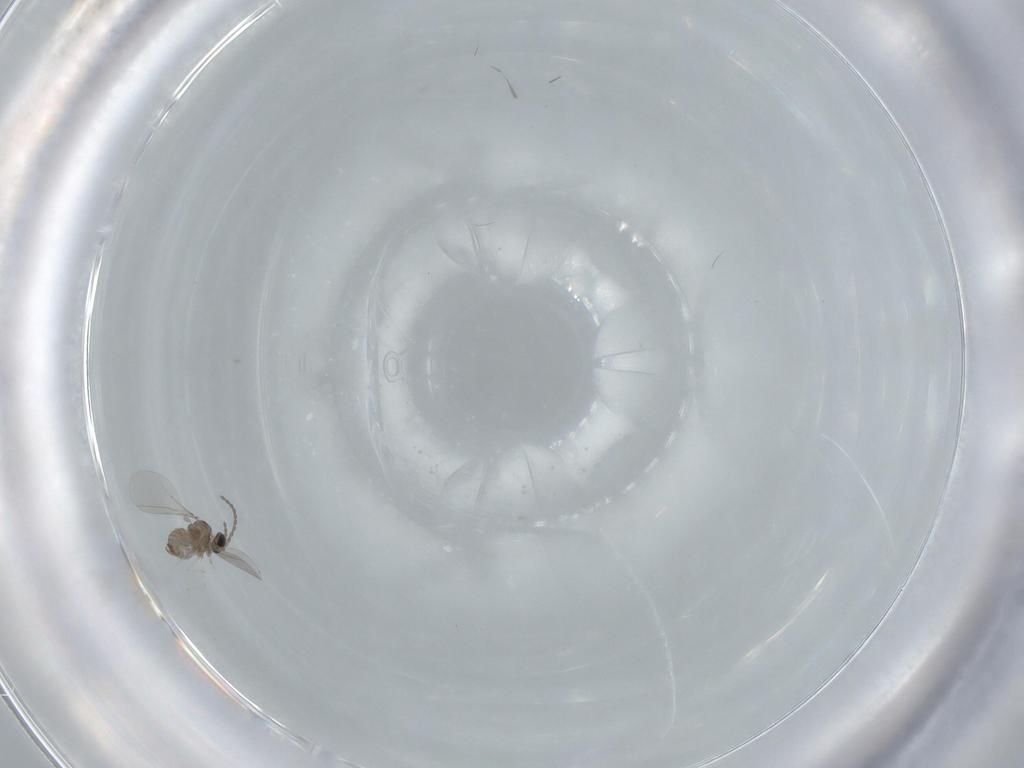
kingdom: Animalia
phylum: Arthropoda
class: Insecta
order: Diptera
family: Cecidomyiidae
